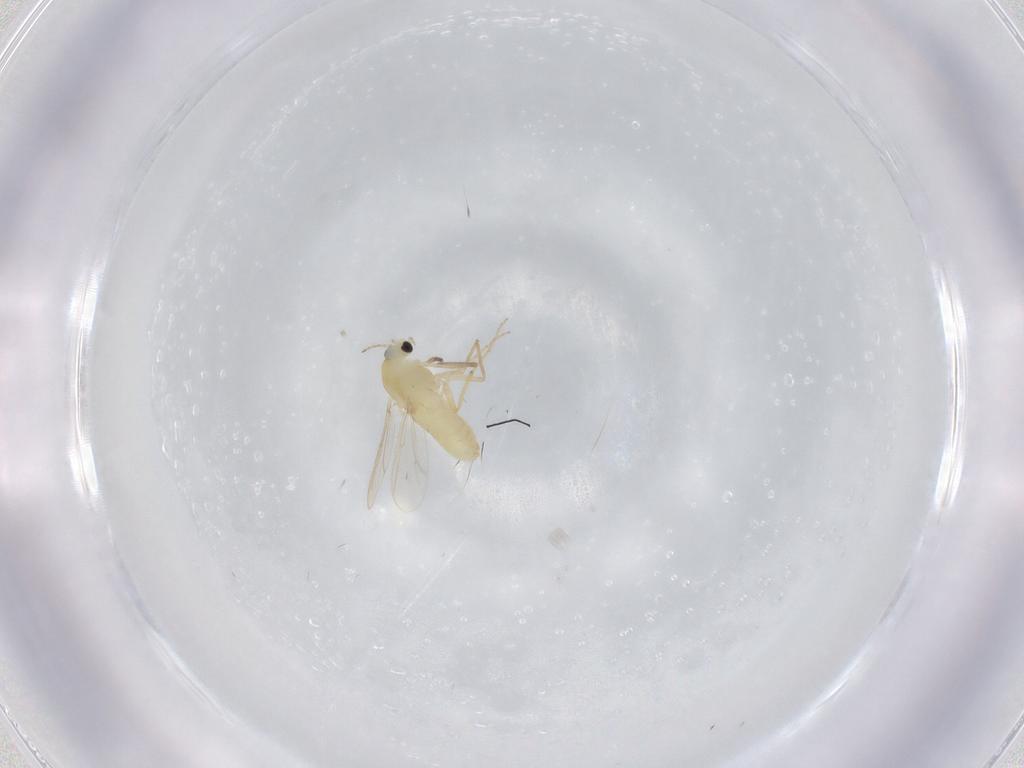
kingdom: Animalia
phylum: Arthropoda
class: Insecta
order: Diptera
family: Chironomidae
